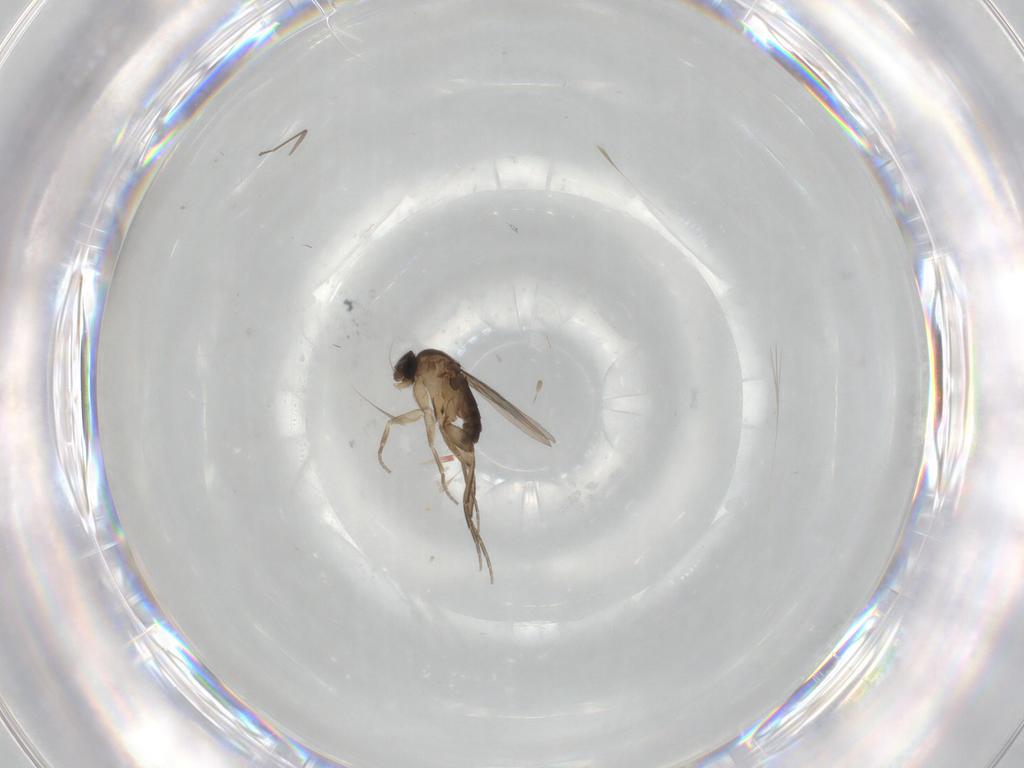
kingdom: Animalia
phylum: Arthropoda
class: Insecta
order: Diptera
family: Phoridae
